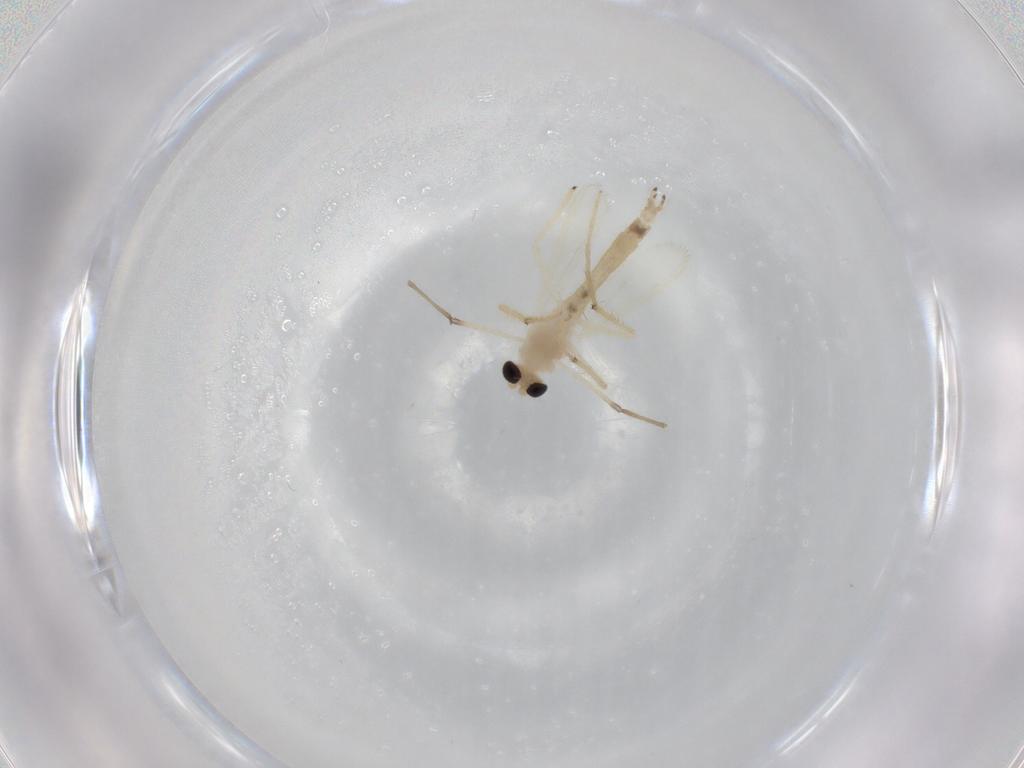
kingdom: Animalia
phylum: Arthropoda
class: Insecta
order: Diptera
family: Chironomidae
